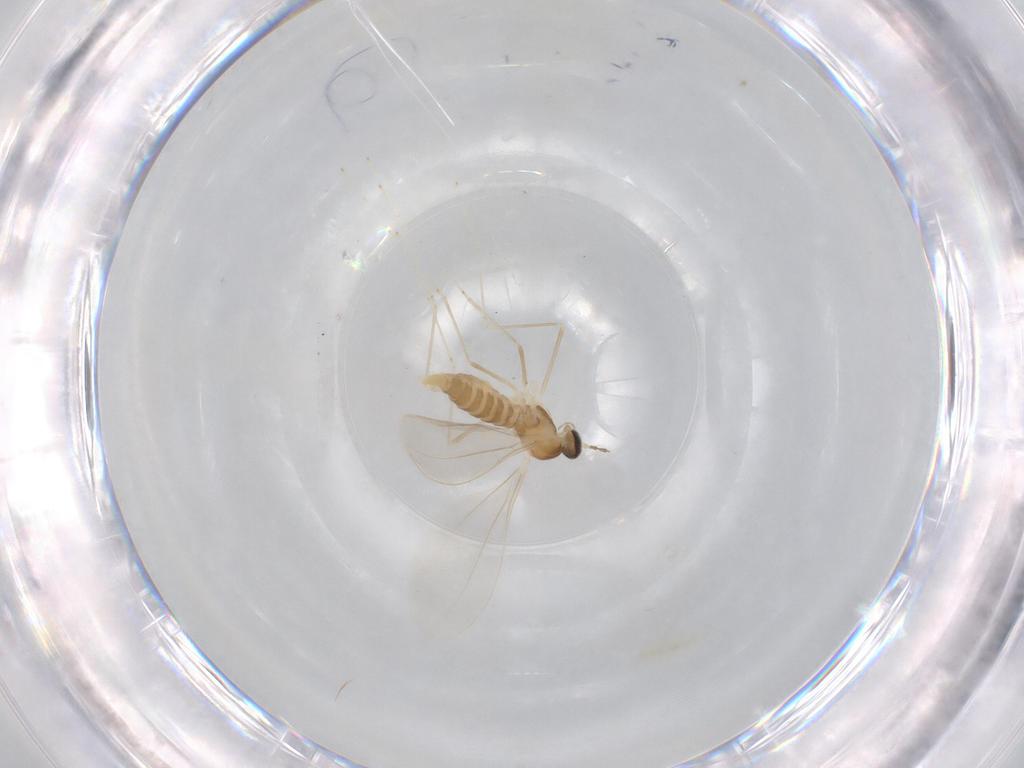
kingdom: Animalia
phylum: Arthropoda
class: Insecta
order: Diptera
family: Cecidomyiidae
